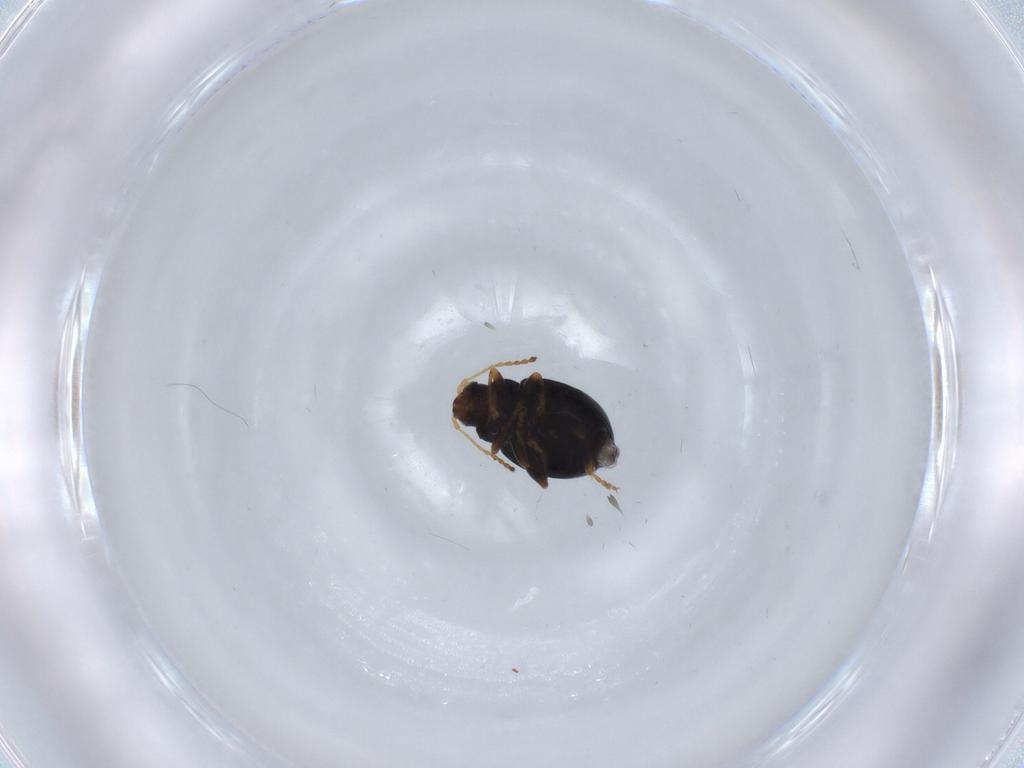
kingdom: Animalia
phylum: Arthropoda
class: Insecta
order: Coleoptera
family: Chrysomelidae
